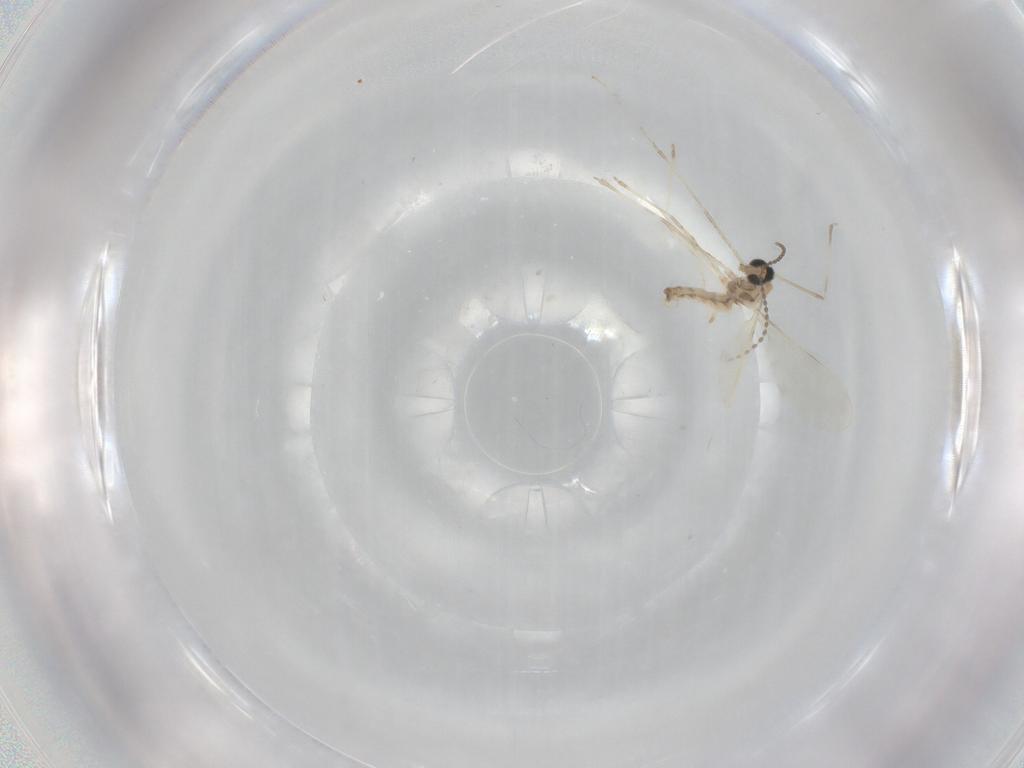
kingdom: Animalia
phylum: Arthropoda
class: Insecta
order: Diptera
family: Cecidomyiidae
